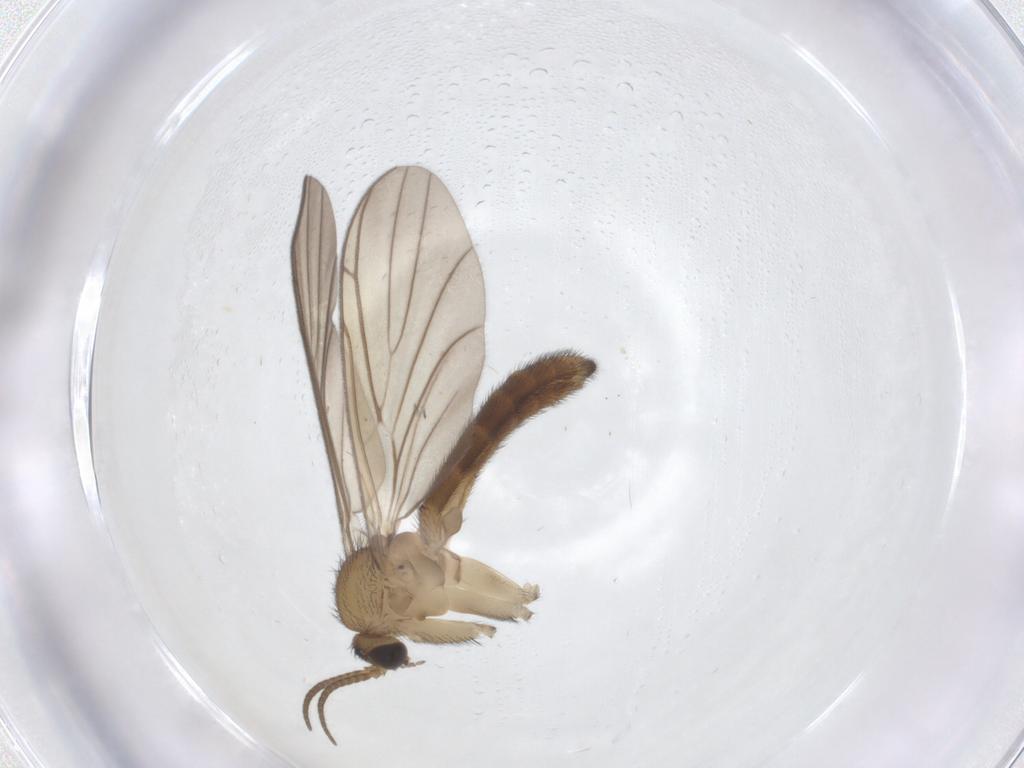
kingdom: Animalia
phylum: Arthropoda
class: Insecta
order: Diptera
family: Keroplatidae
